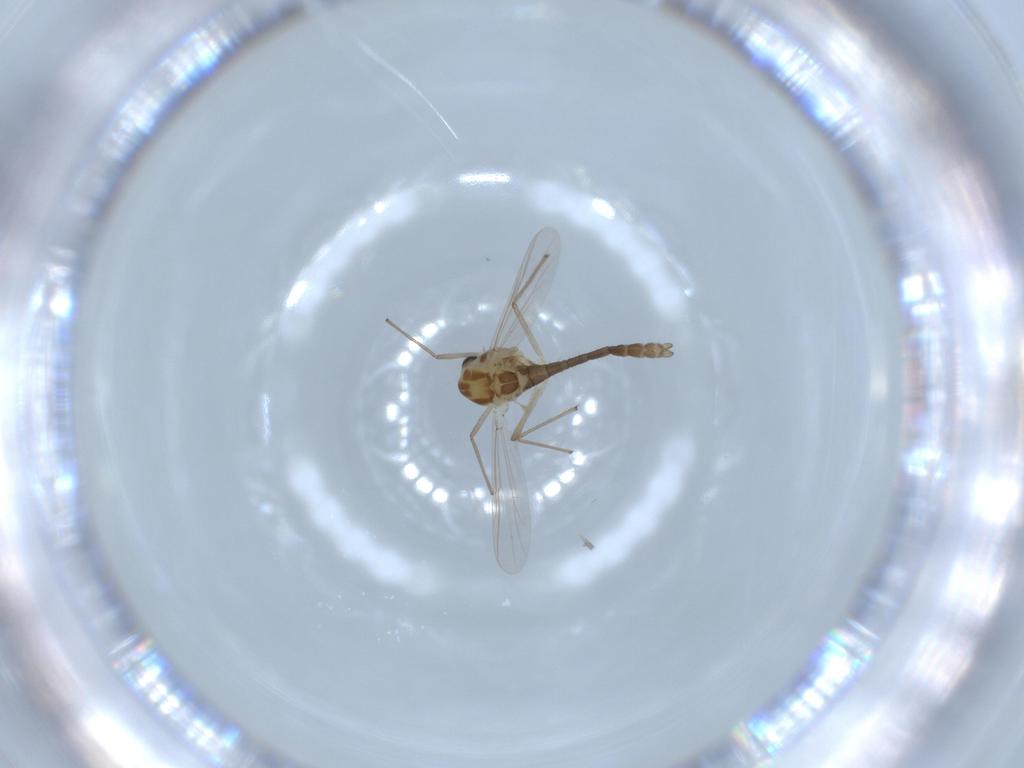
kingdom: Animalia
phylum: Arthropoda
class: Insecta
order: Diptera
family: Chironomidae
